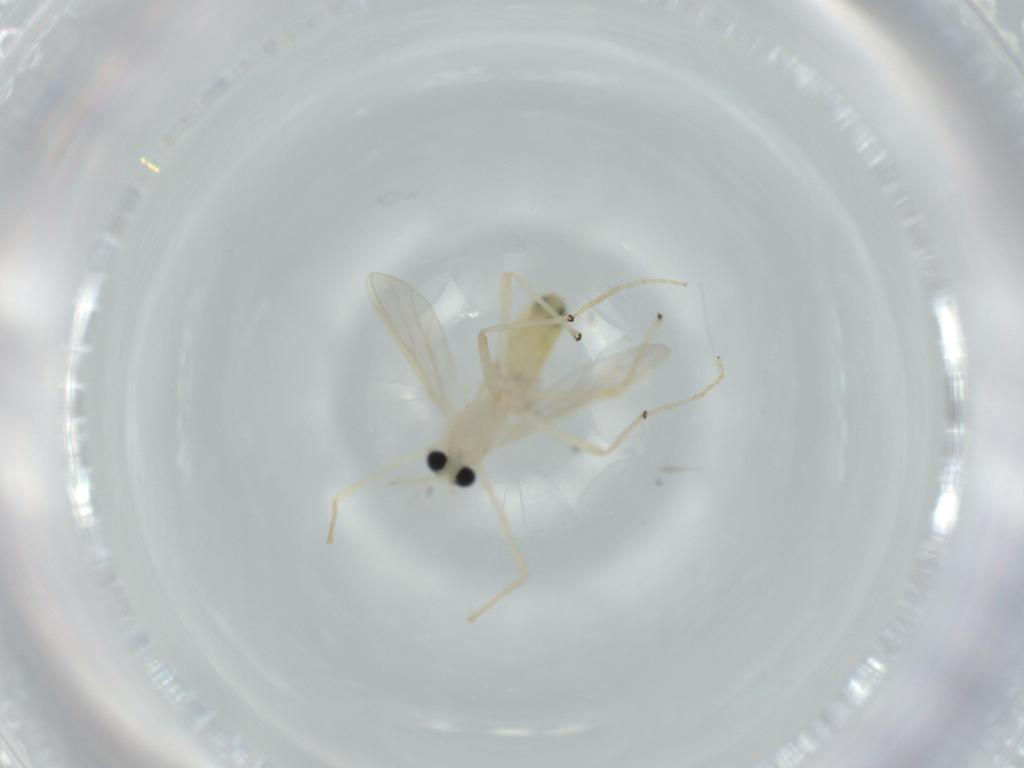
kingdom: Animalia
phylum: Arthropoda
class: Insecta
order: Diptera
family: Chironomidae
